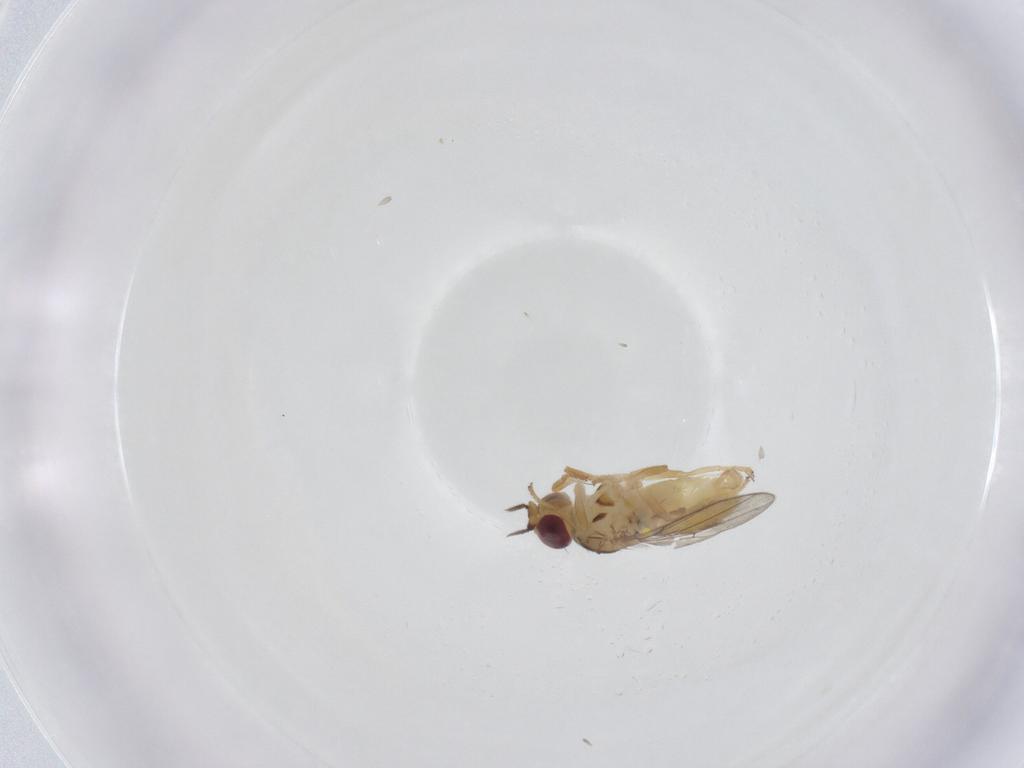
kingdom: Animalia
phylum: Arthropoda
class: Insecta
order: Diptera
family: Chloropidae
